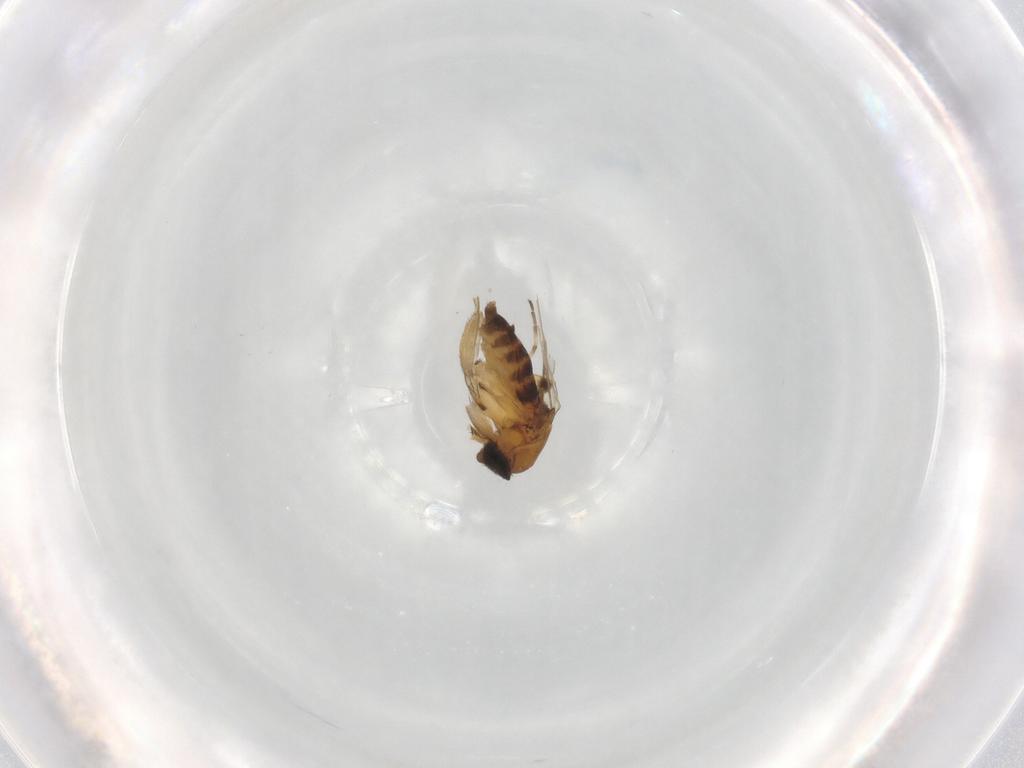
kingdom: Animalia
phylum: Arthropoda
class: Insecta
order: Diptera
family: Phoridae
